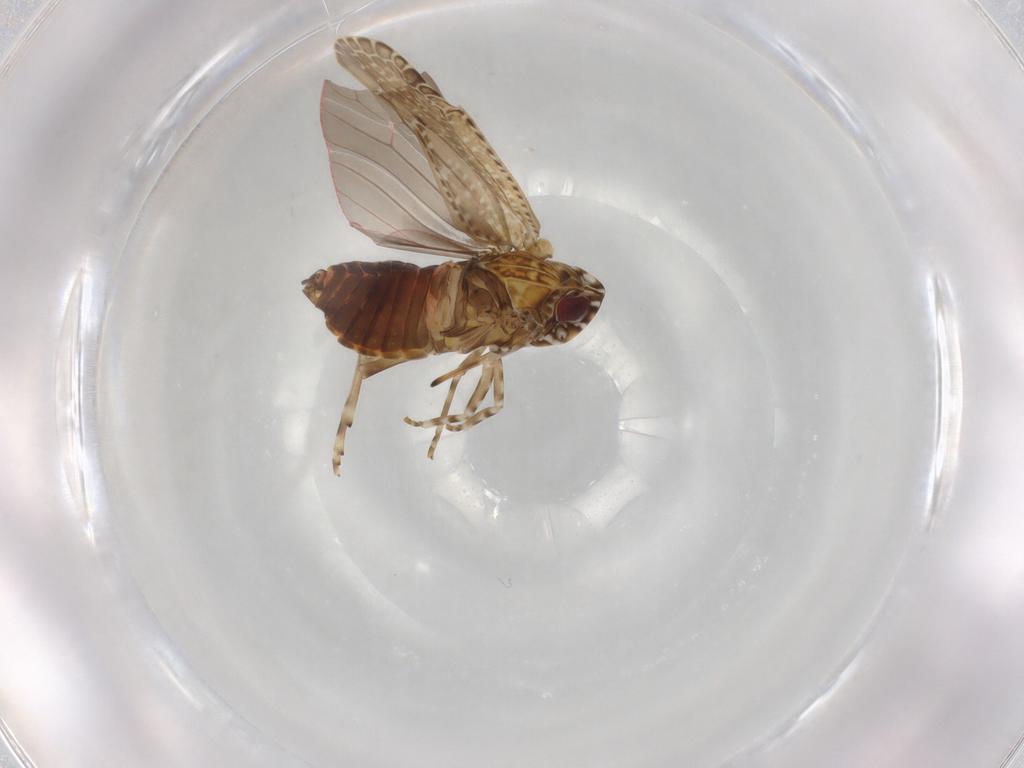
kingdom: Animalia
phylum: Arthropoda
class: Insecta
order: Hemiptera
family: Achilidae
